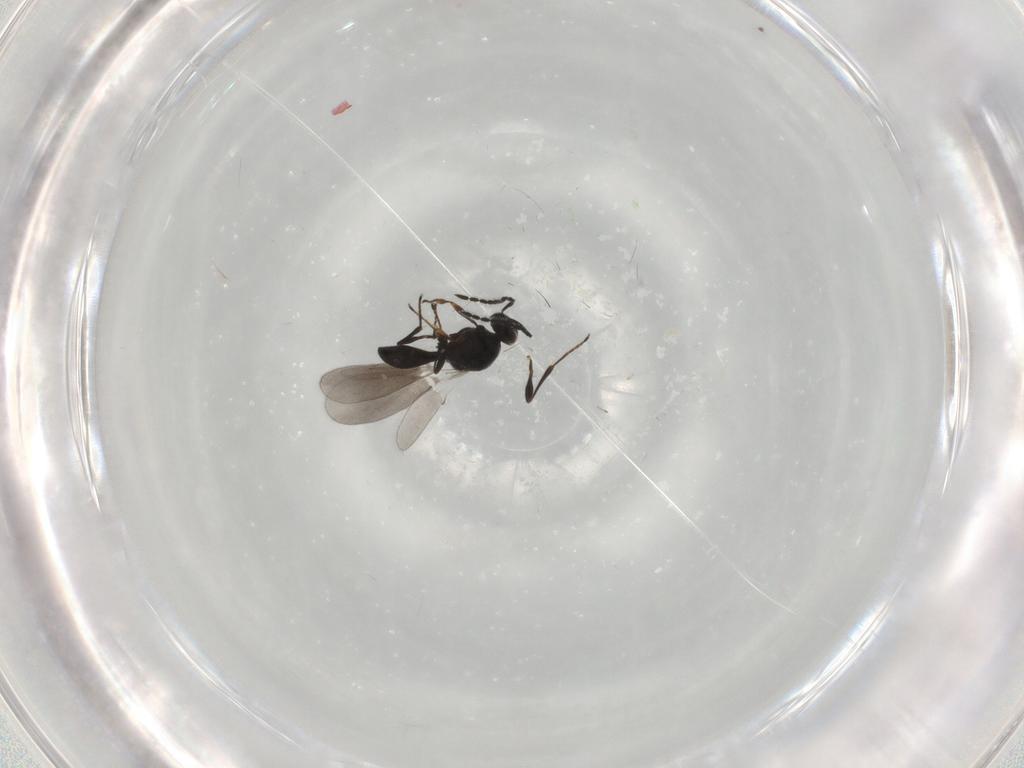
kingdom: Animalia
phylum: Arthropoda
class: Insecta
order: Hymenoptera
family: Platygastridae
